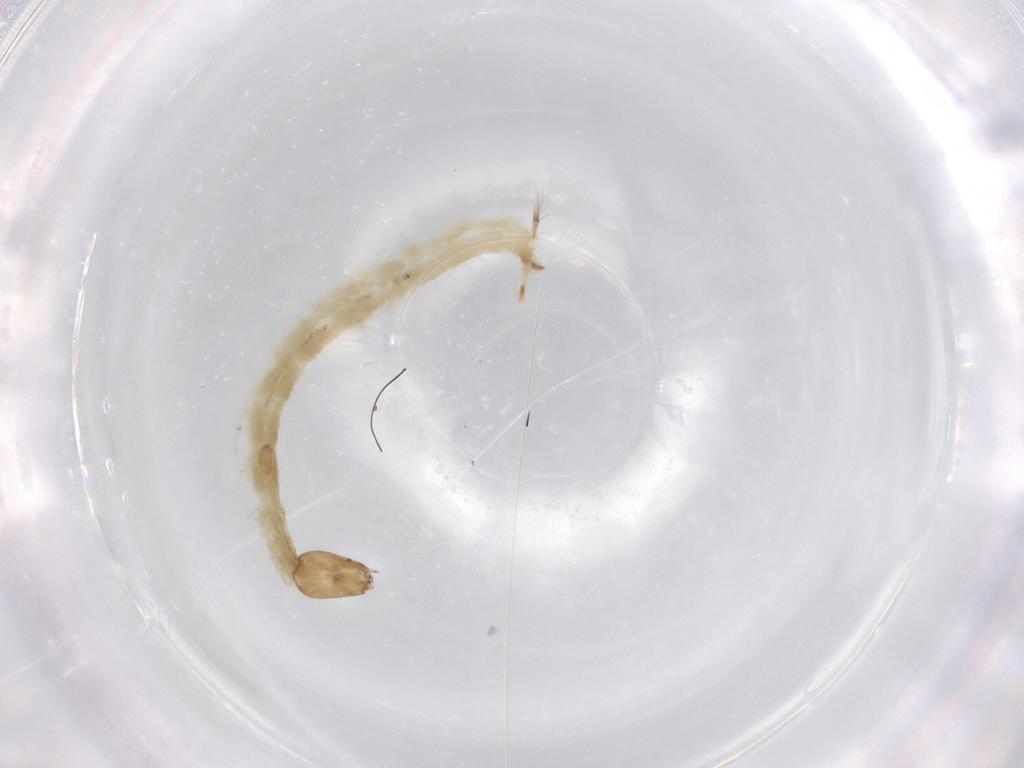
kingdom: Animalia
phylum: Arthropoda
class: Insecta
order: Diptera
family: Chironomidae
